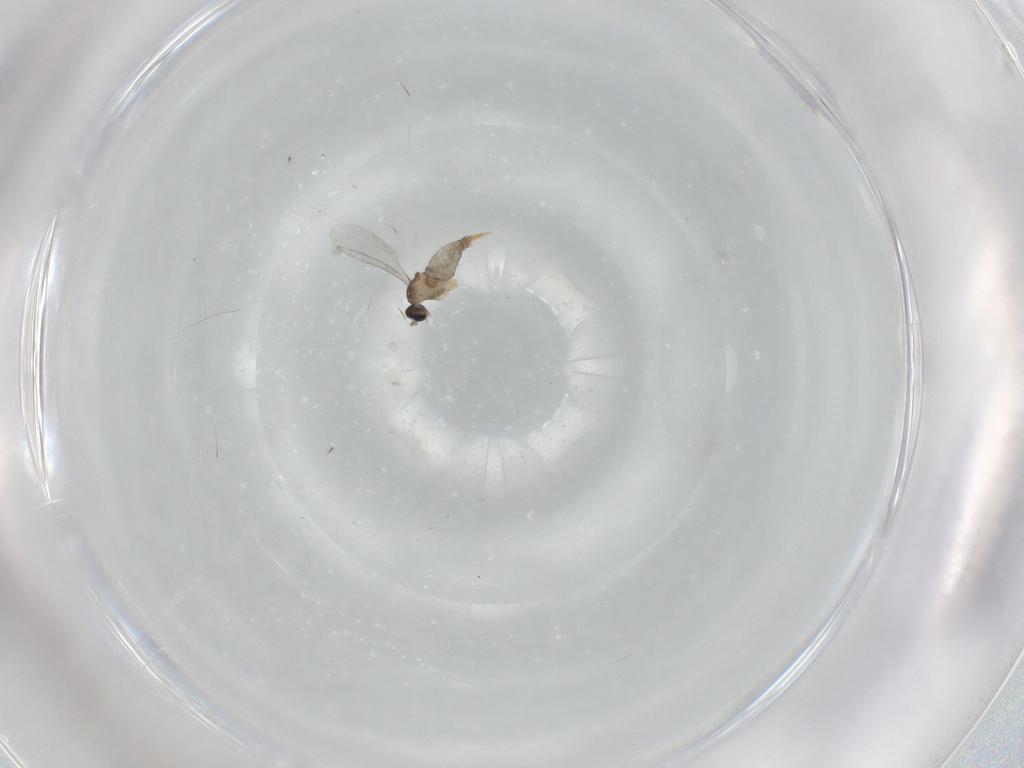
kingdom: Animalia
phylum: Arthropoda
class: Insecta
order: Diptera
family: Cecidomyiidae
